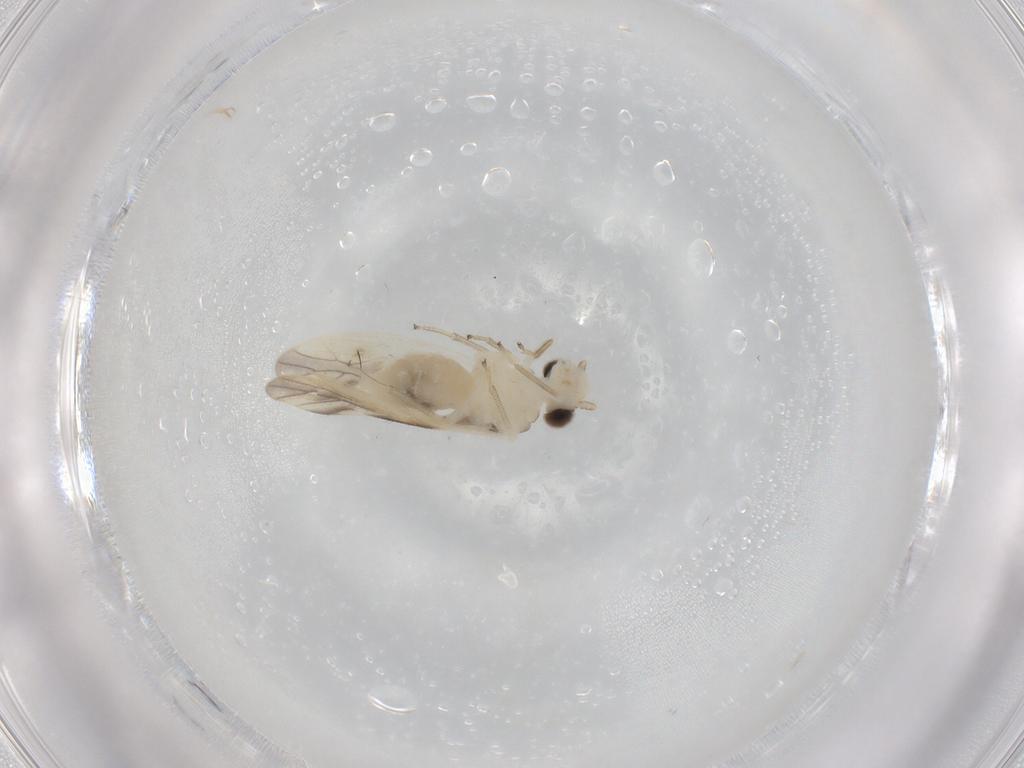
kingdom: Animalia
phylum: Arthropoda
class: Insecta
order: Psocodea
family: Caeciliusidae
